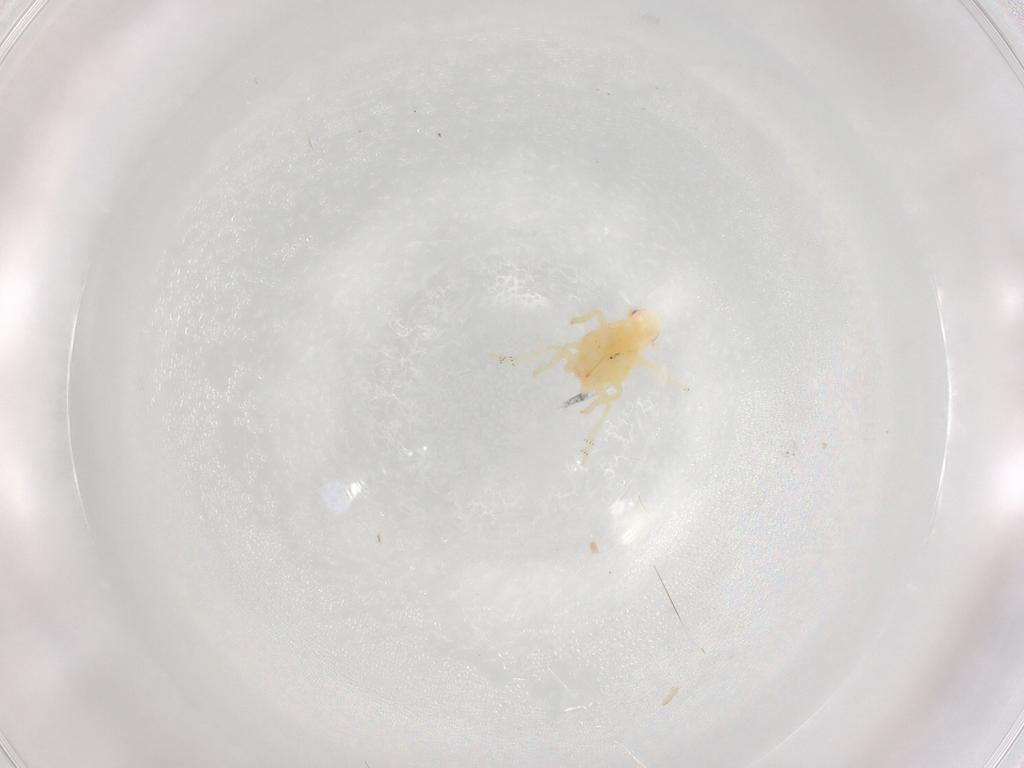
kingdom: Animalia
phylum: Arthropoda
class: Insecta
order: Hemiptera
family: Flatidae
